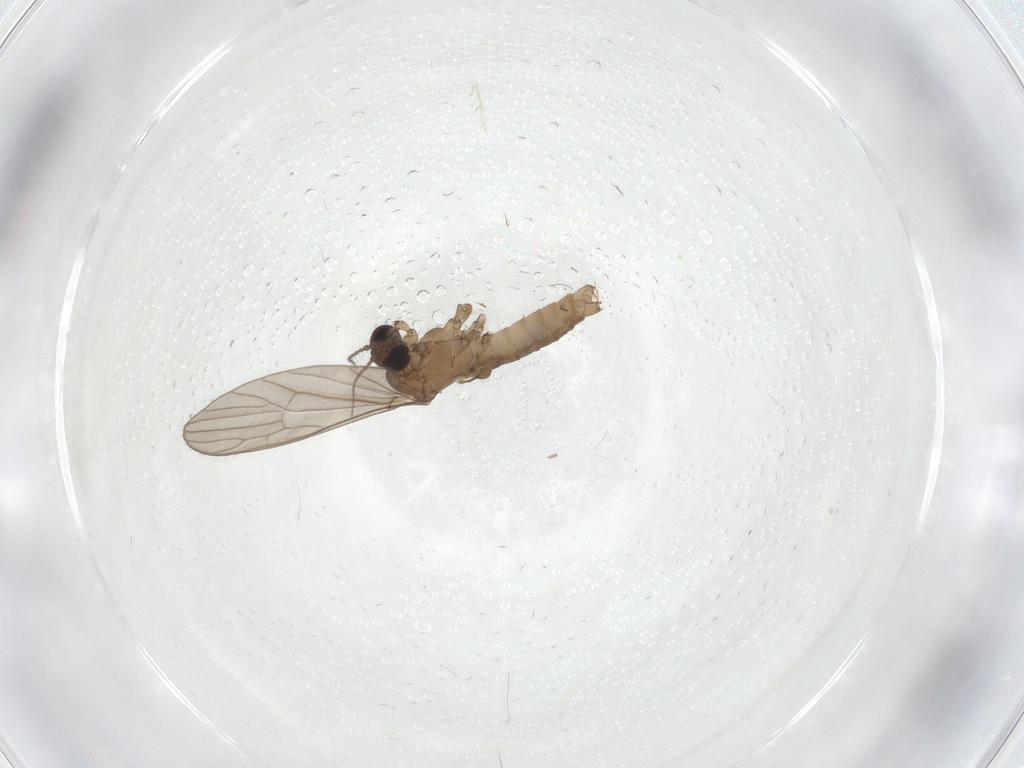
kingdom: Animalia
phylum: Arthropoda
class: Insecta
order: Diptera
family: Limoniidae
